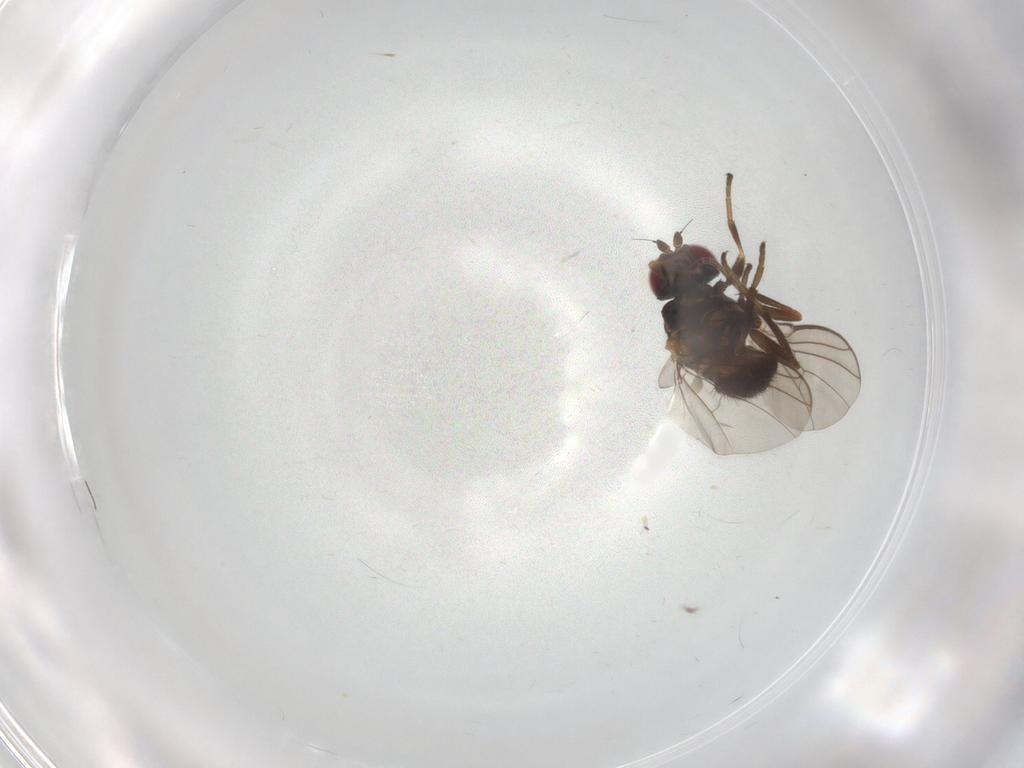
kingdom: Animalia
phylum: Arthropoda
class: Insecta
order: Diptera
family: Agromyzidae
